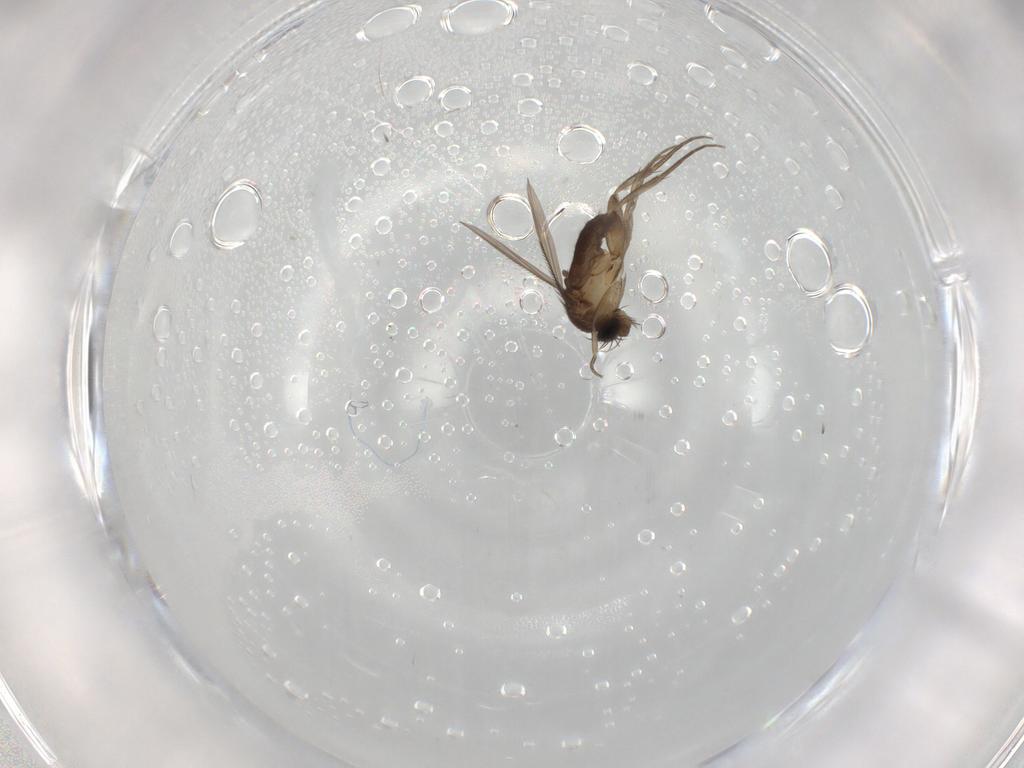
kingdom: Animalia
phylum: Arthropoda
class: Insecta
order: Diptera
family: Phoridae
